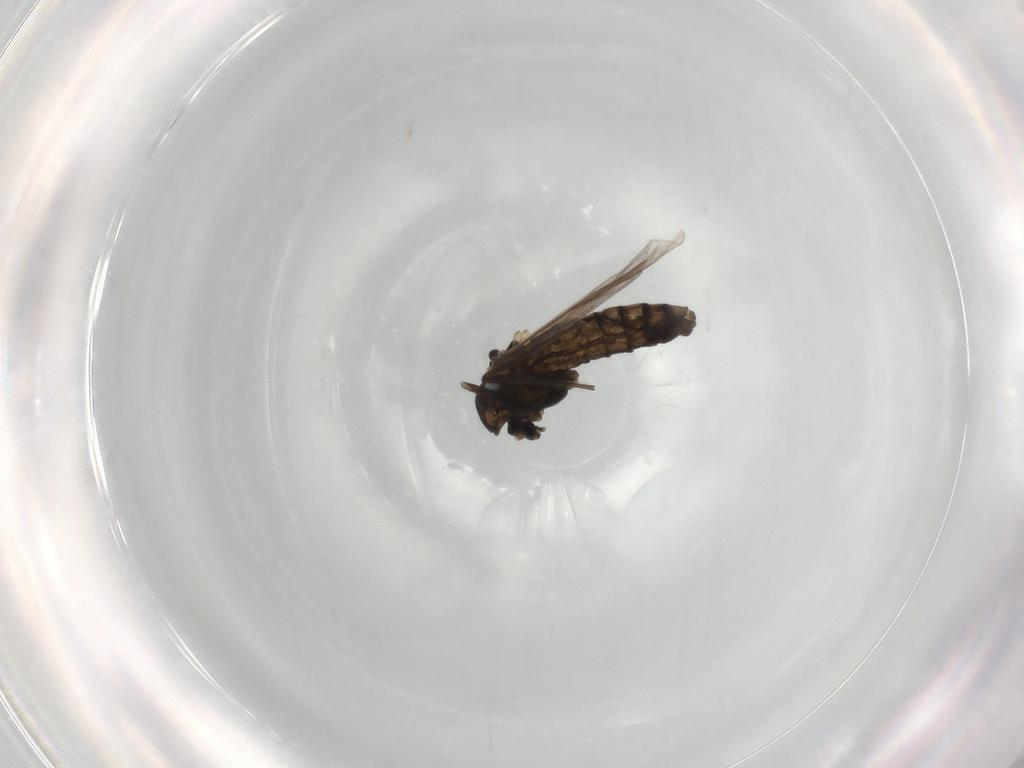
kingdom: Animalia
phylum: Arthropoda
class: Insecta
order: Diptera
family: Chironomidae
